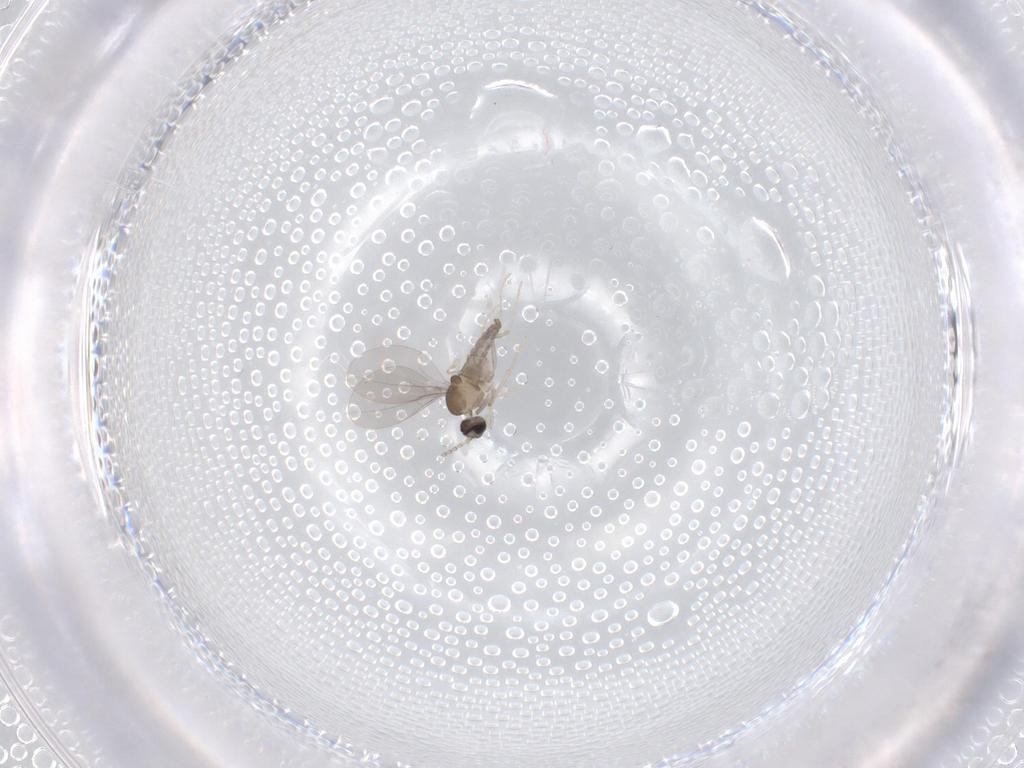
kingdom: Animalia
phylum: Arthropoda
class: Insecta
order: Diptera
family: Cecidomyiidae
